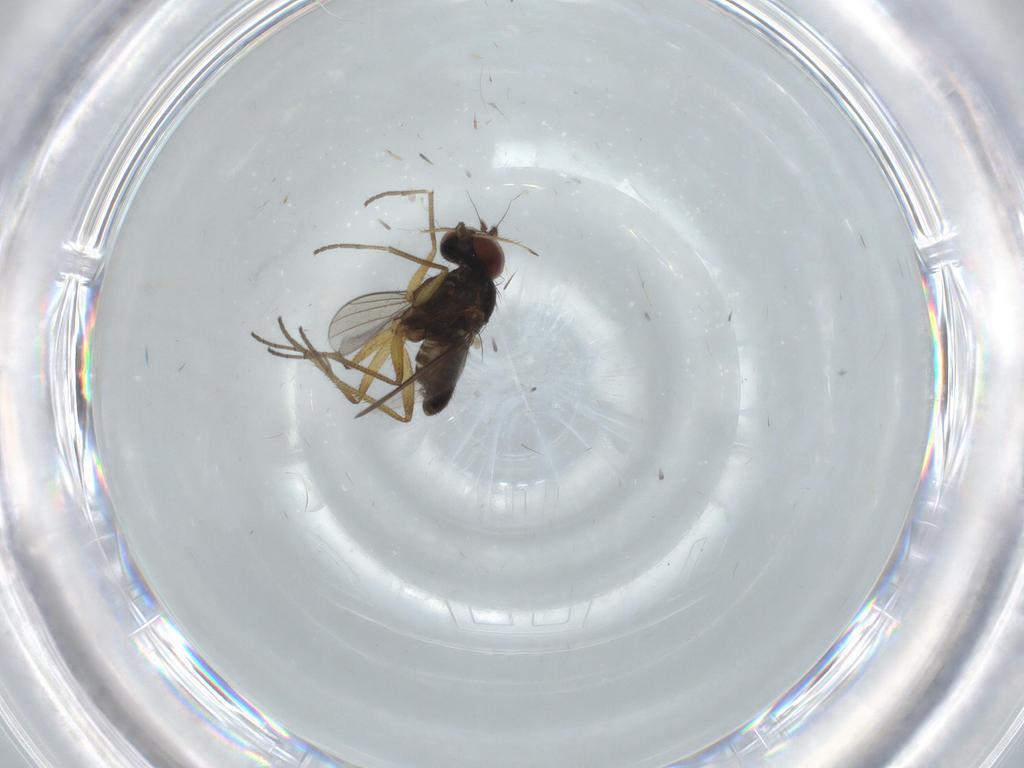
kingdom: Animalia
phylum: Arthropoda
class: Insecta
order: Diptera
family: Dolichopodidae
